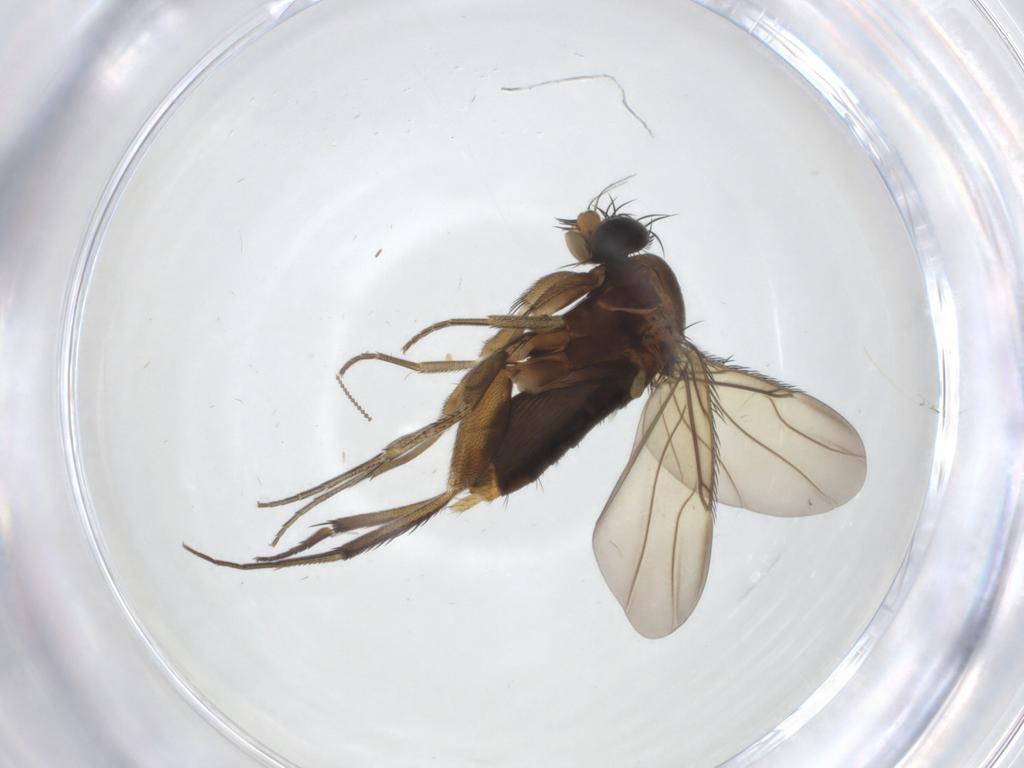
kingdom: Animalia
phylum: Arthropoda
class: Insecta
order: Diptera
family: Phoridae
